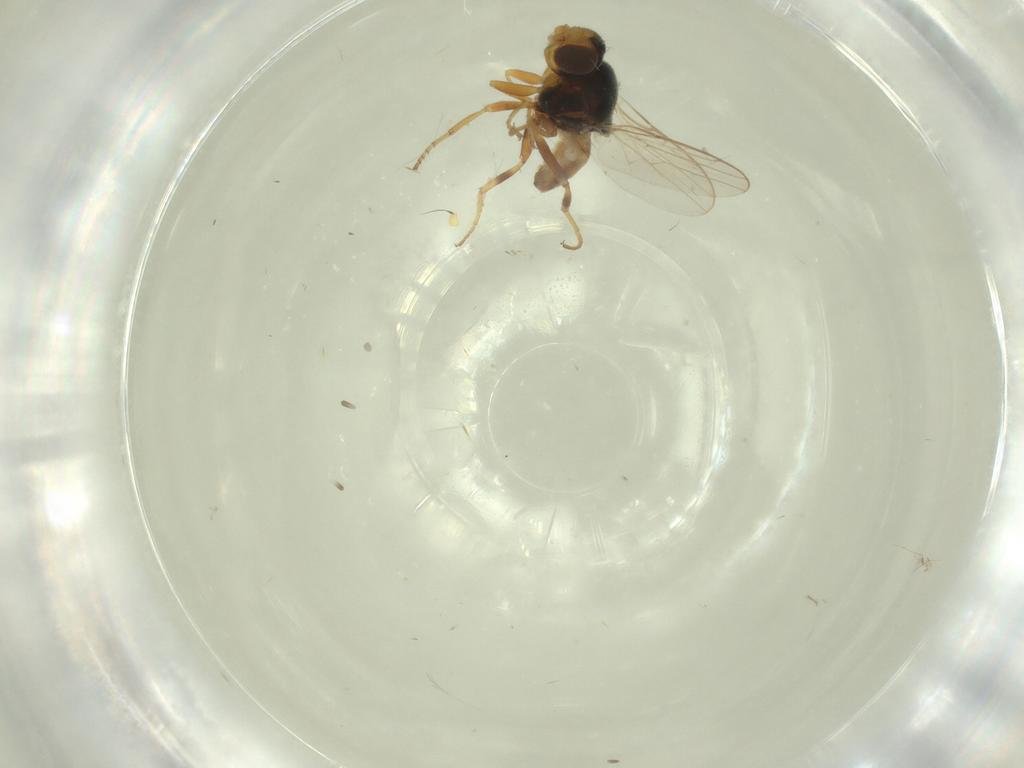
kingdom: Animalia
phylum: Arthropoda
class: Insecta
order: Diptera
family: Chloropidae
